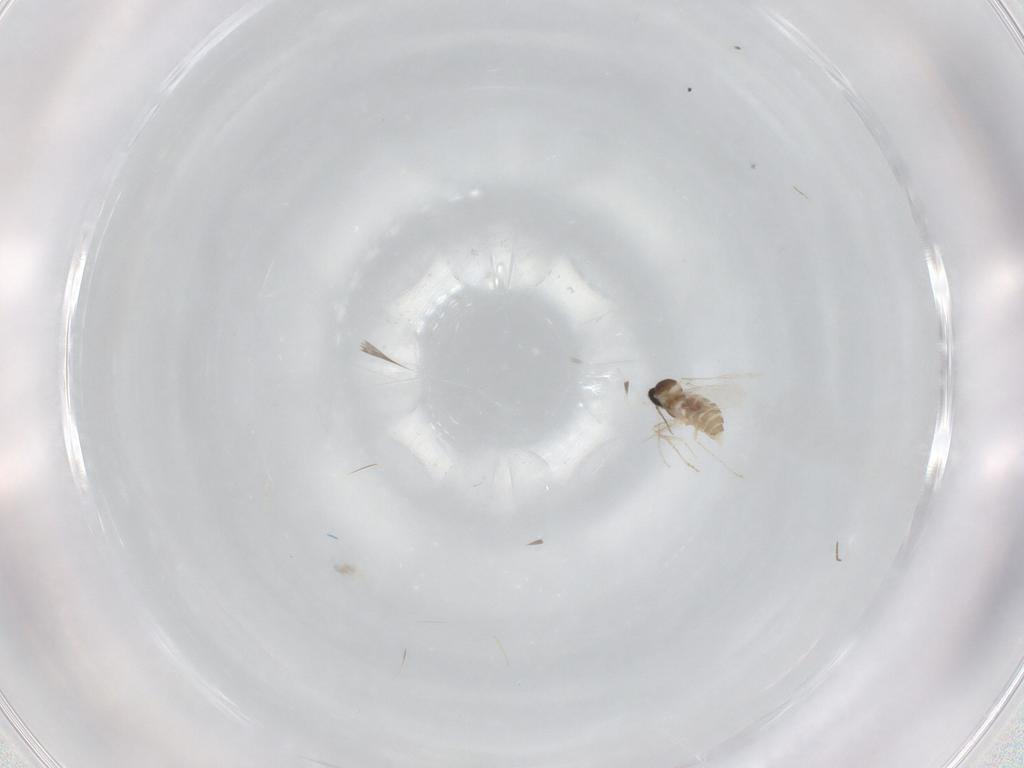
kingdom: Animalia
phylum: Arthropoda
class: Insecta
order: Diptera
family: Cecidomyiidae
